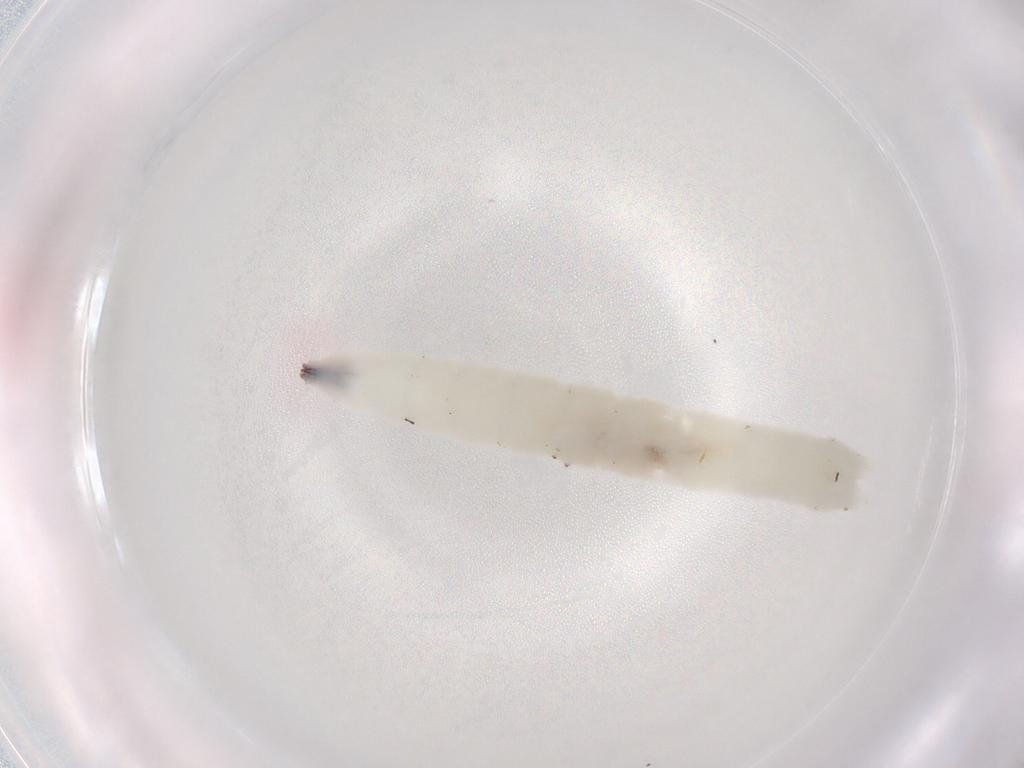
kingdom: Animalia
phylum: Arthropoda
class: Insecta
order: Diptera
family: Dolichopodidae
